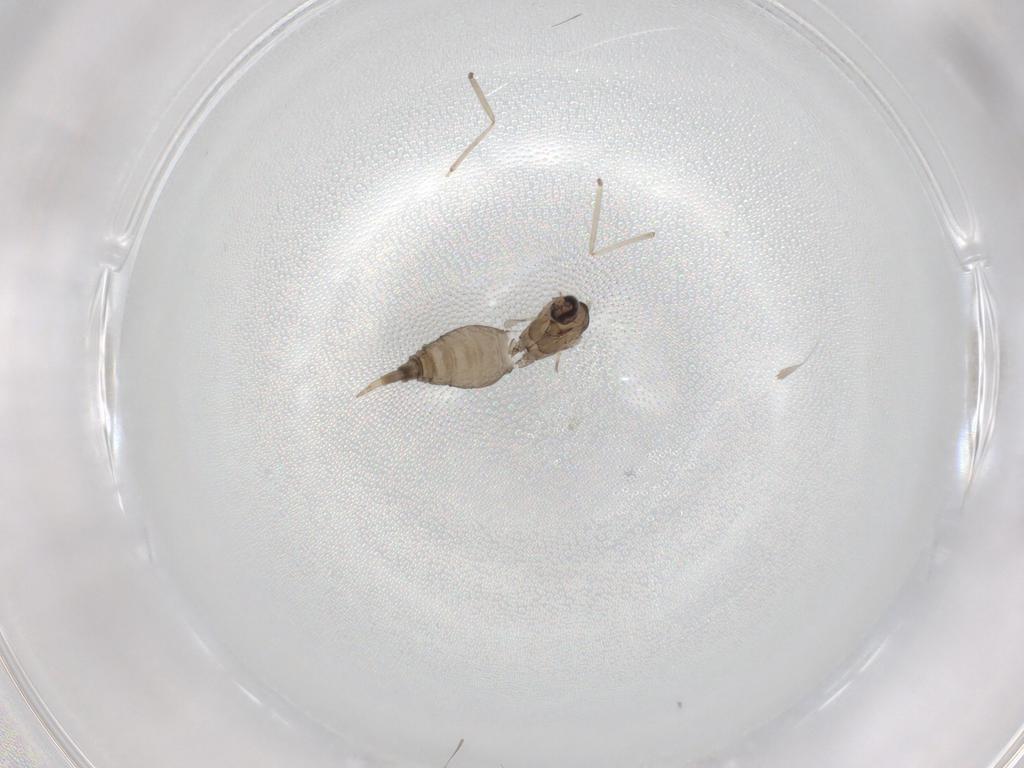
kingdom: Animalia
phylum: Arthropoda
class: Insecta
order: Diptera
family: Cecidomyiidae
